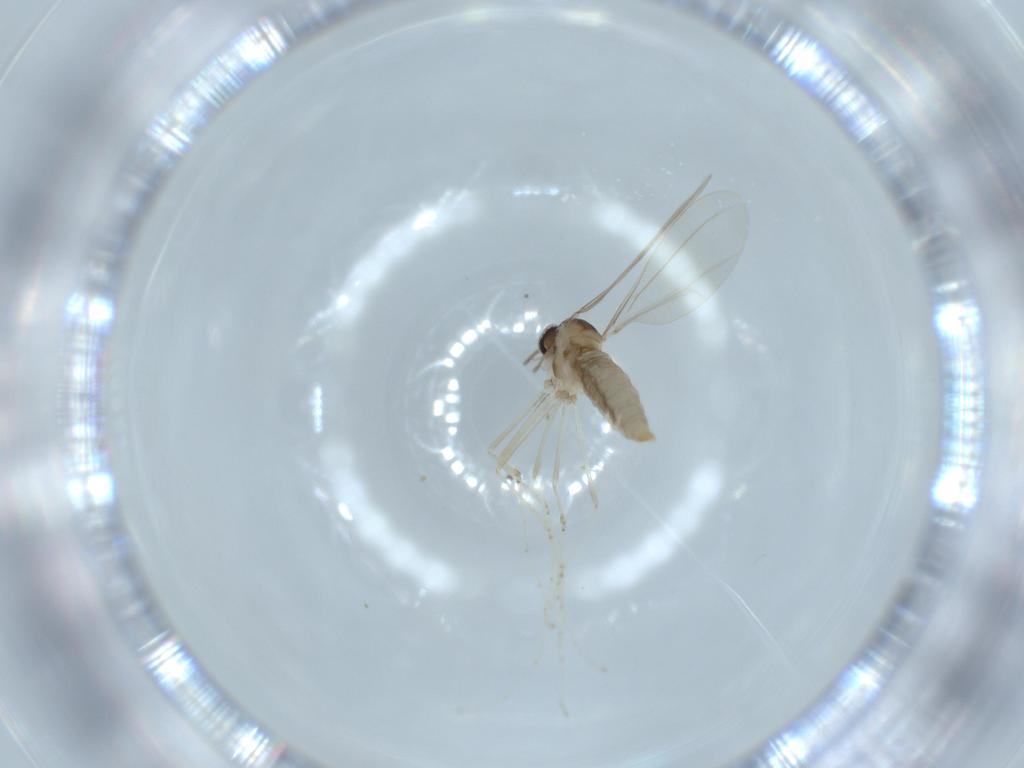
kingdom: Animalia
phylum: Arthropoda
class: Insecta
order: Diptera
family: Cecidomyiidae
